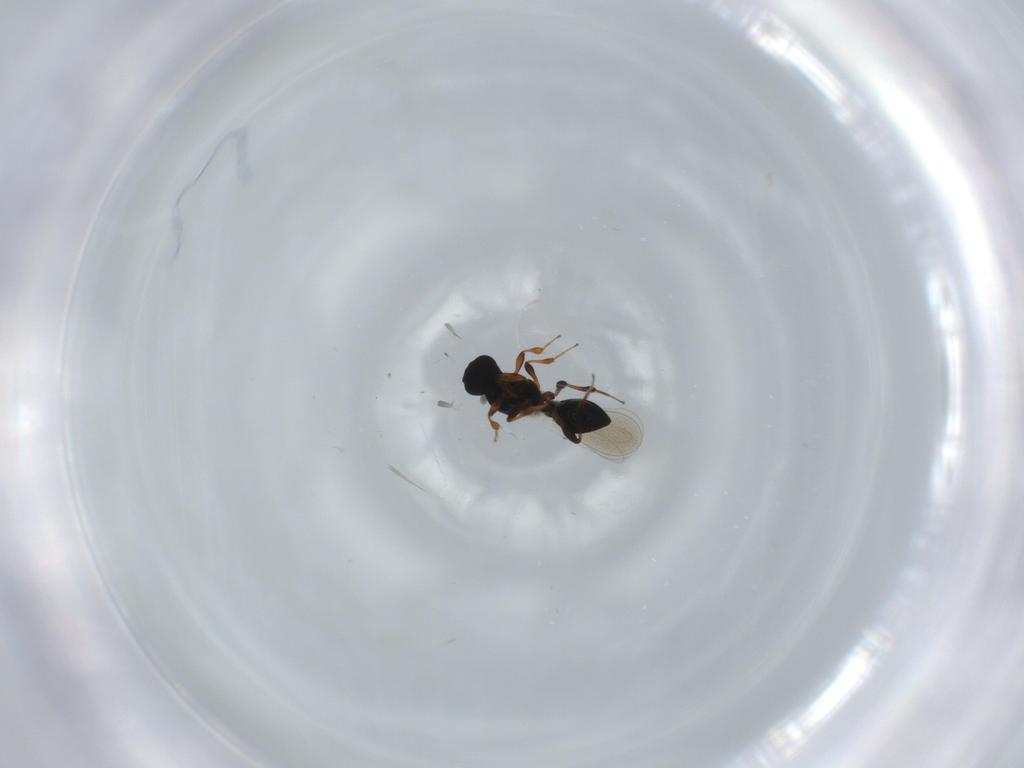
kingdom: Animalia
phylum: Arthropoda
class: Insecta
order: Hymenoptera
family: Platygastridae
